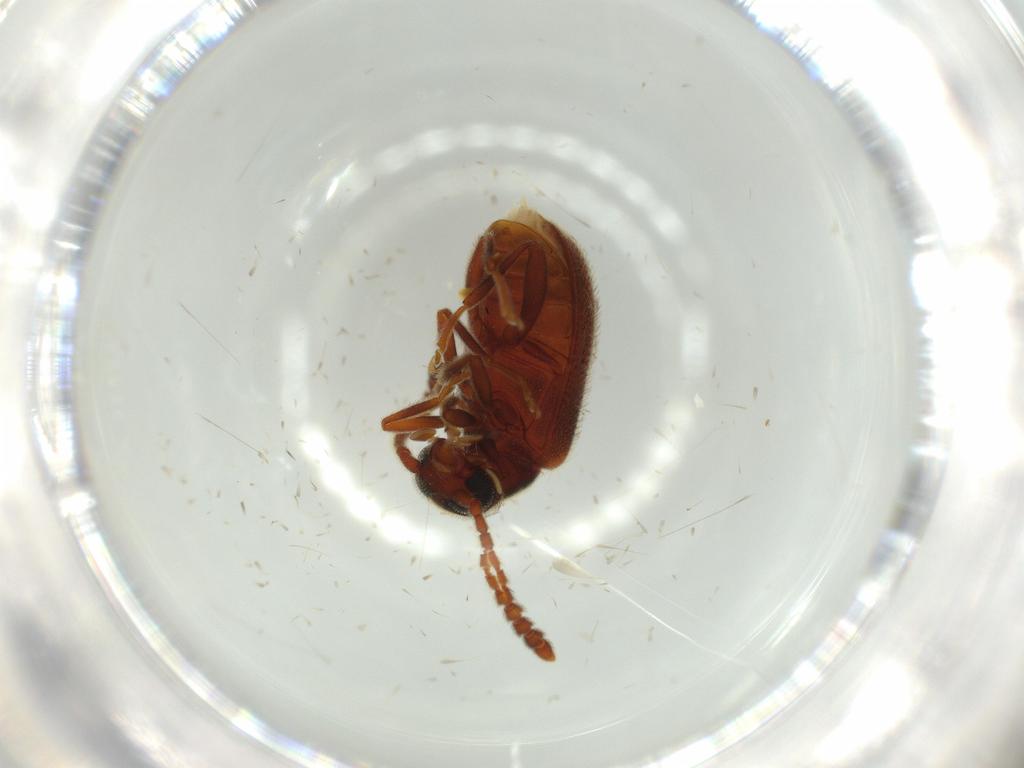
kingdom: Animalia
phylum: Arthropoda
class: Insecta
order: Coleoptera
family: Aderidae
